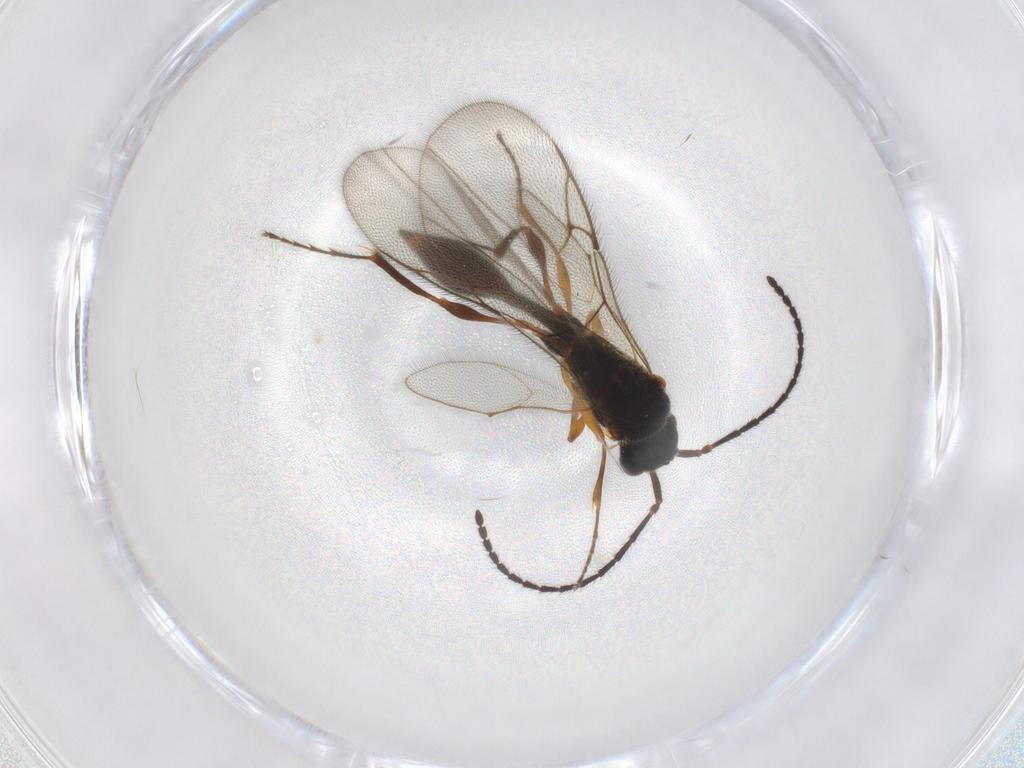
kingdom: Animalia
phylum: Arthropoda
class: Insecta
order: Hymenoptera
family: Diapriidae
